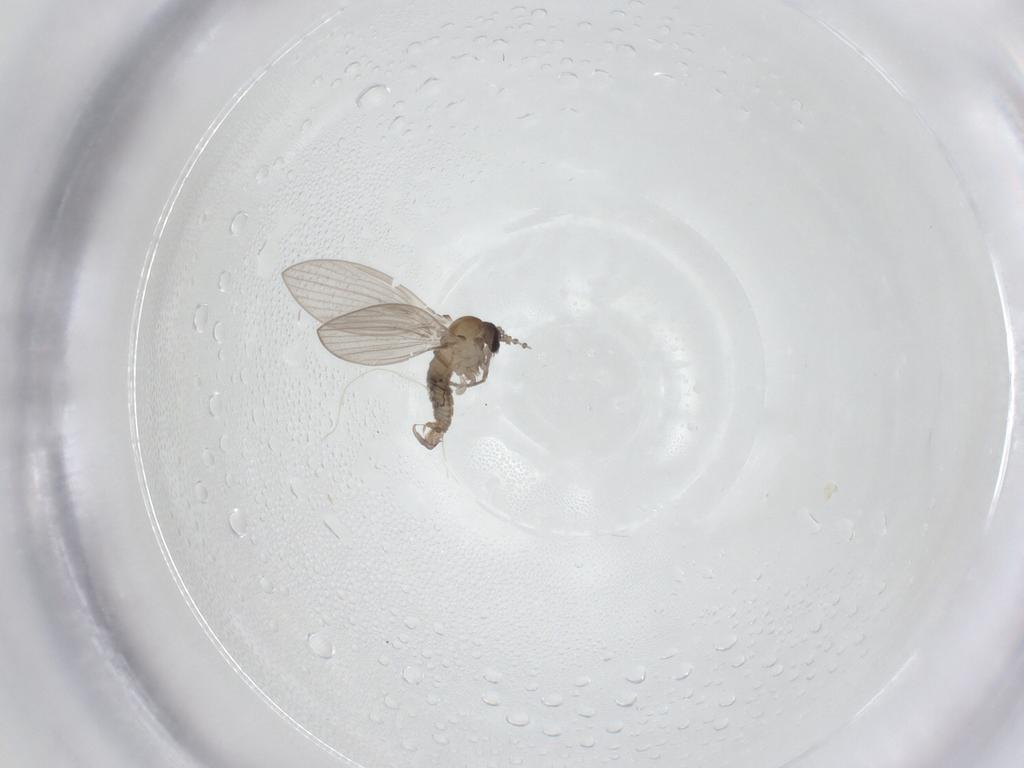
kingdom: Animalia
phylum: Arthropoda
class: Insecta
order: Diptera
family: Psychodidae
